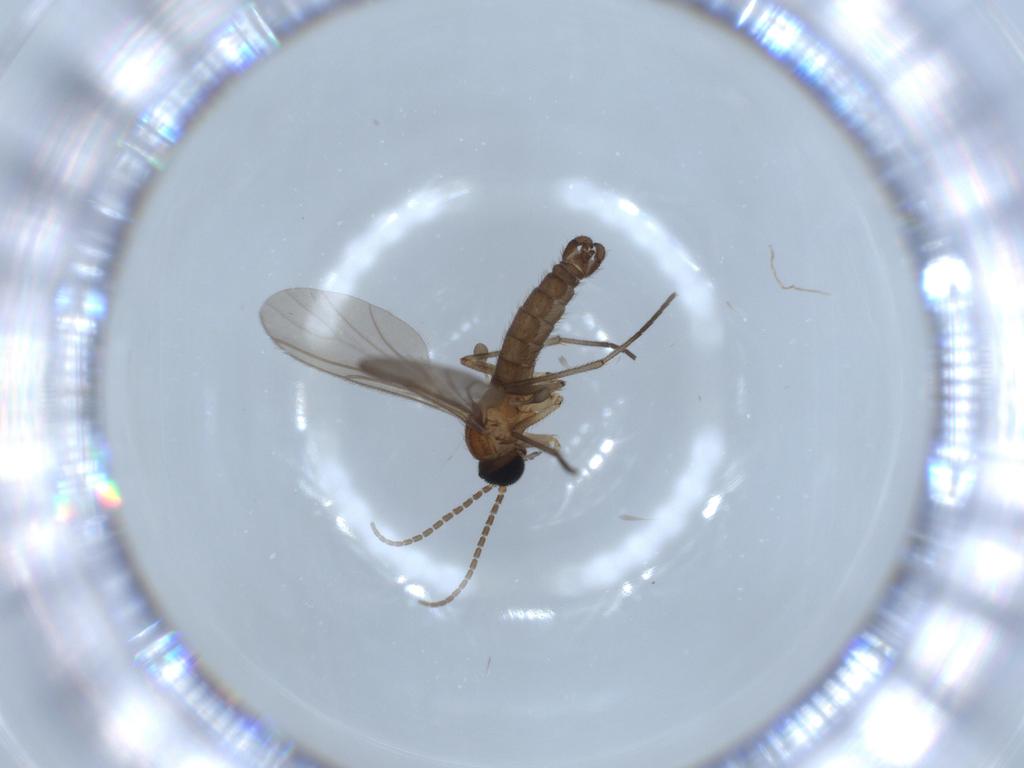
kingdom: Animalia
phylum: Arthropoda
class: Insecta
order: Diptera
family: Sciaridae
